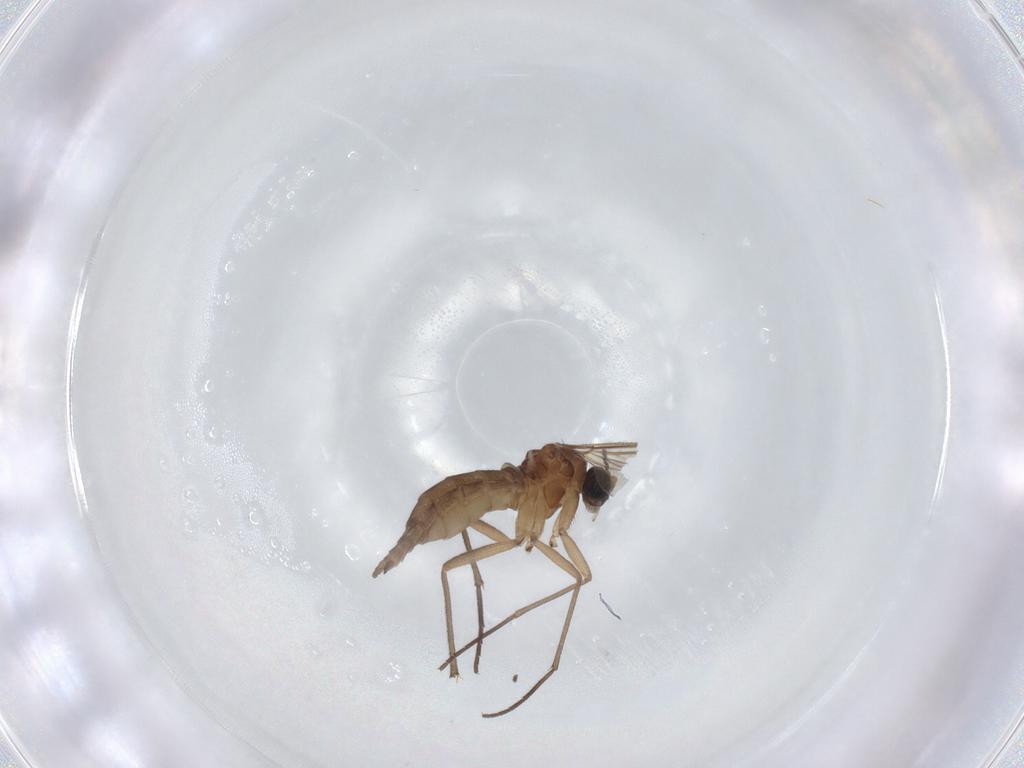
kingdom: Animalia
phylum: Arthropoda
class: Insecta
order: Diptera
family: Sciaridae
